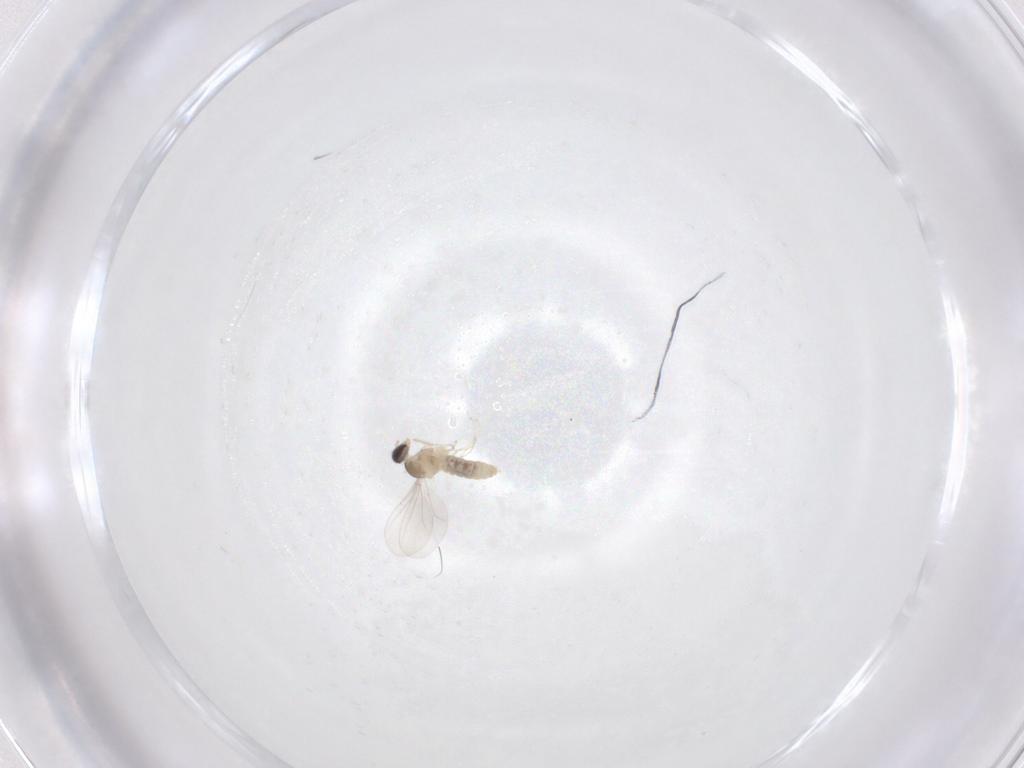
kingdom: Animalia
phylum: Arthropoda
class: Insecta
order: Diptera
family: Cecidomyiidae
